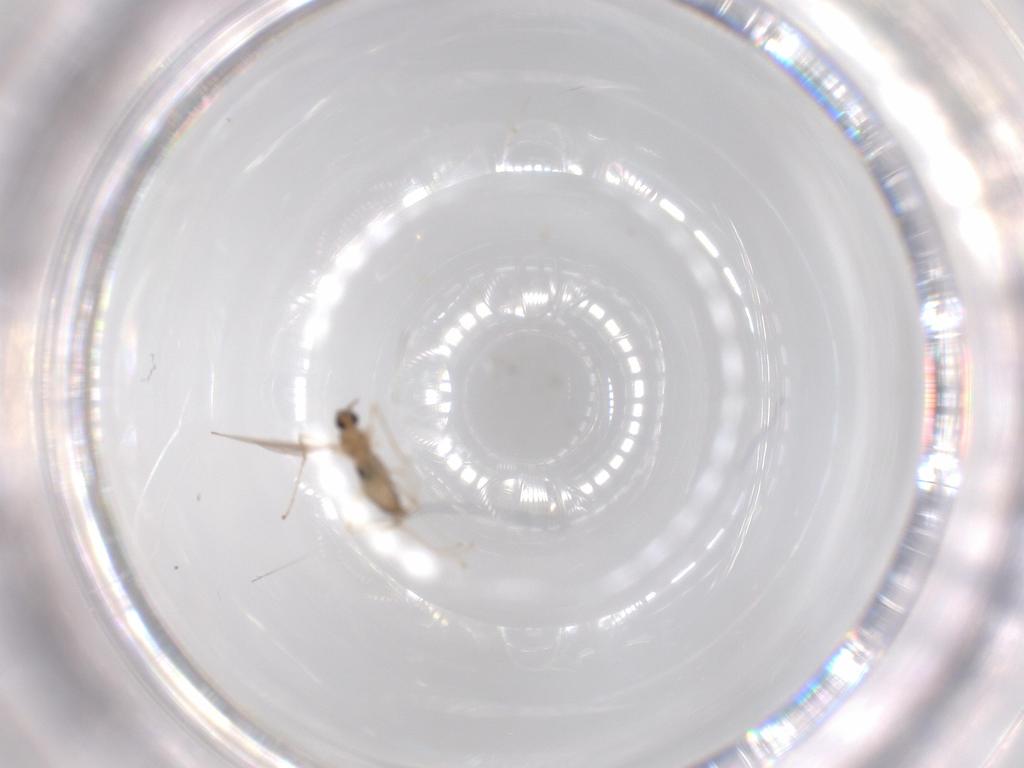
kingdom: Animalia
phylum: Arthropoda
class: Insecta
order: Diptera
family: Cecidomyiidae
